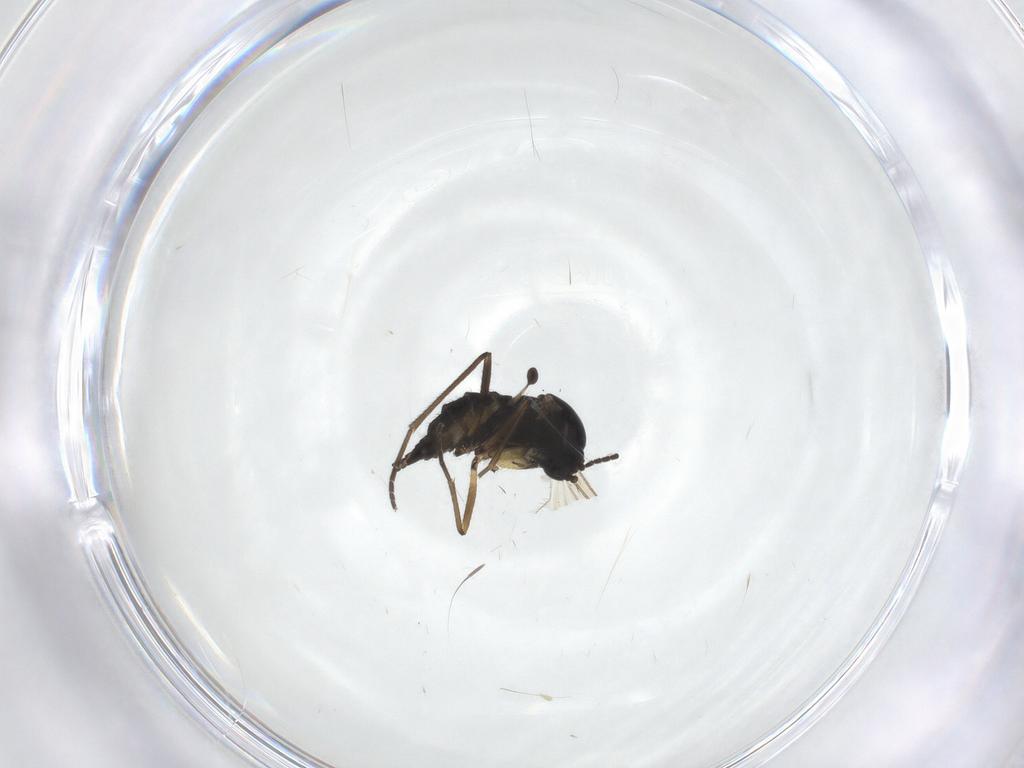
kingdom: Animalia
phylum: Arthropoda
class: Insecta
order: Diptera
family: Sciaridae
